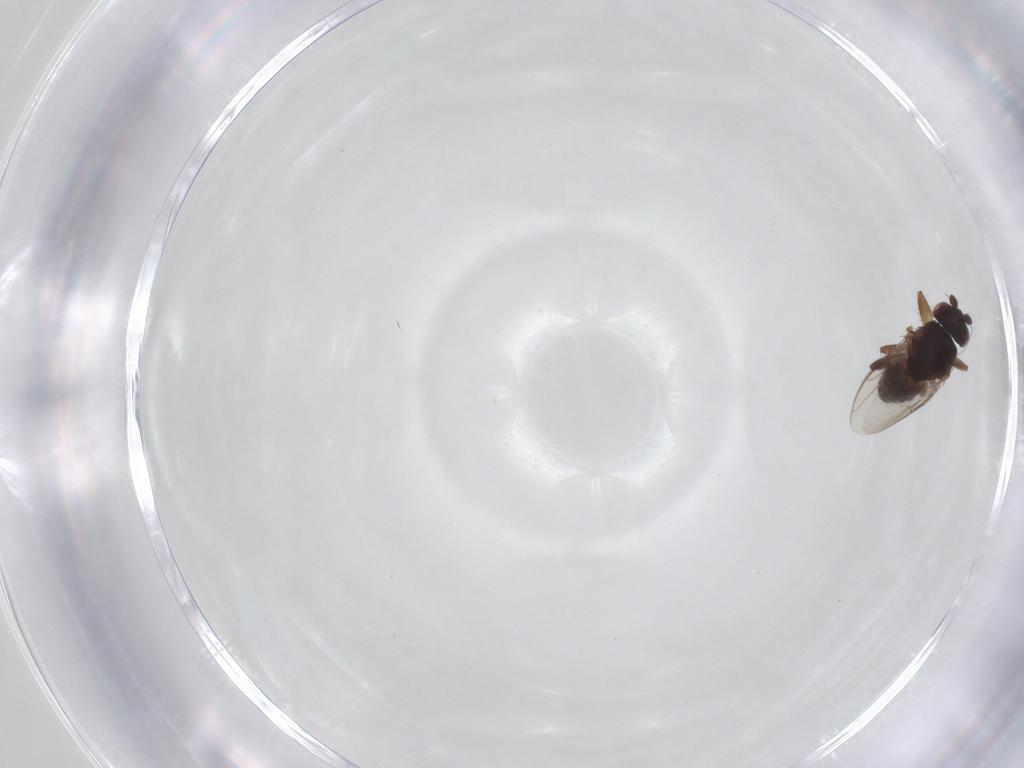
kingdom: Animalia
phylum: Arthropoda
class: Insecta
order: Diptera
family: Sphaeroceridae
